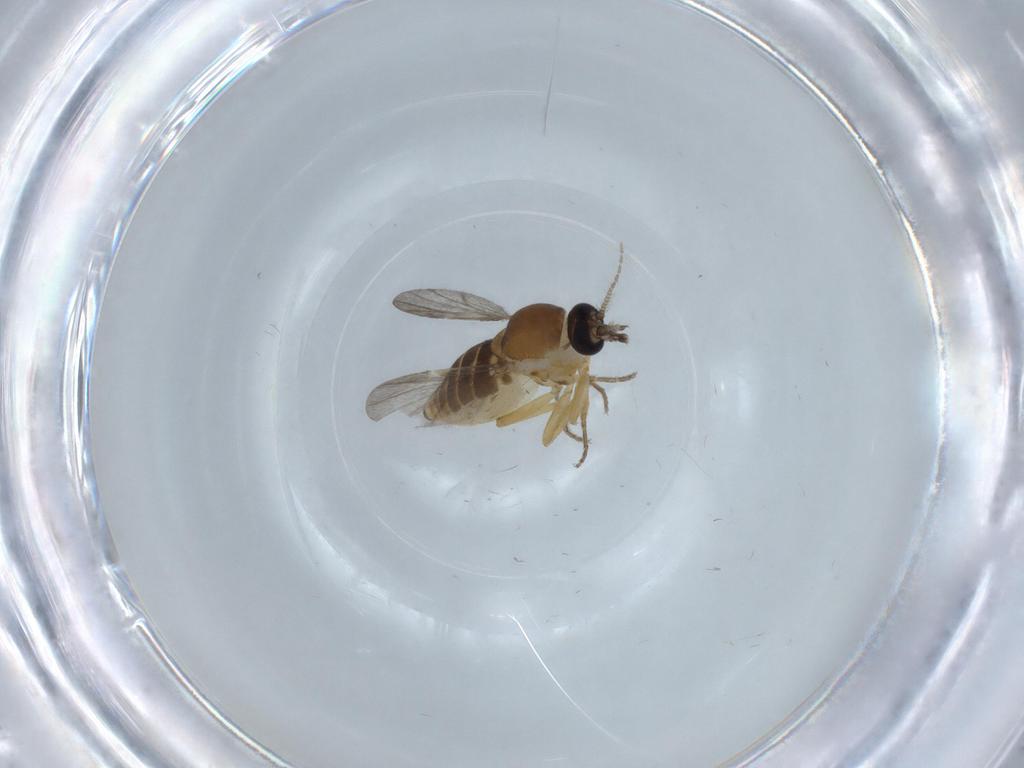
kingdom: Animalia
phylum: Arthropoda
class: Insecta
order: Diptera
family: Ceratopogonidae
